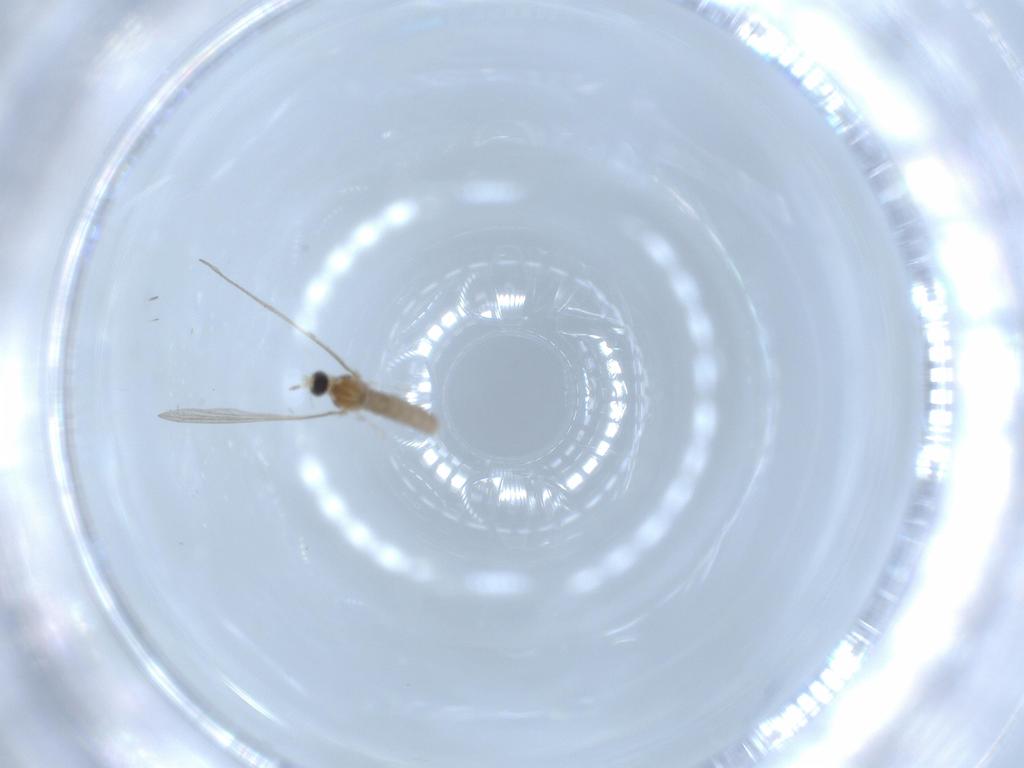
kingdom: Animalia
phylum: Arthropoda
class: Insecta
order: Diptera
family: Cecidomyiidae
